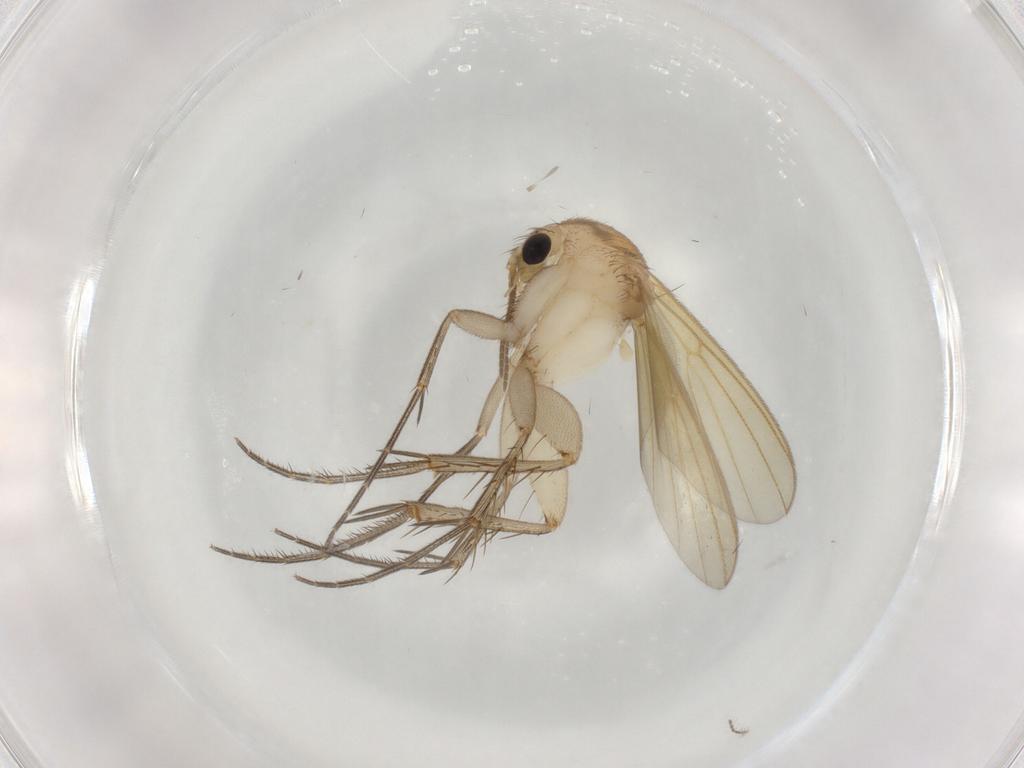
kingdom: Animalia
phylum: Arthropoda
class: Insecta
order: Diptera
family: Mycetophilidae
